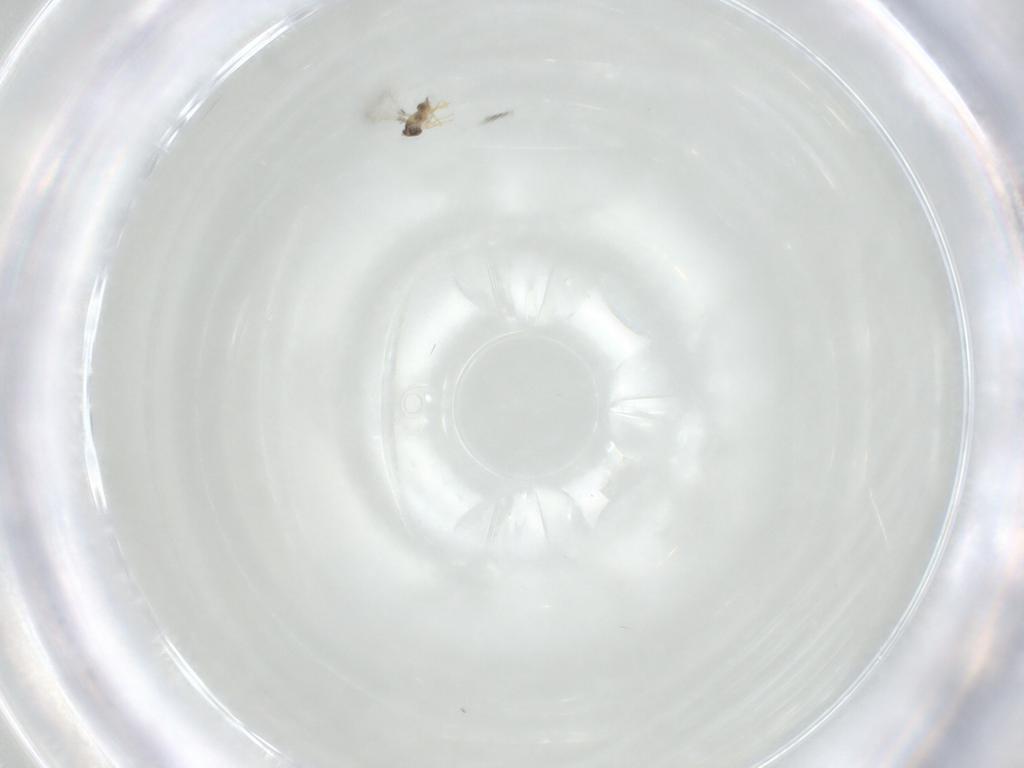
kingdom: Animalia
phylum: Arthropoda
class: Insecta
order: Hymenoptera
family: Mymaridae
